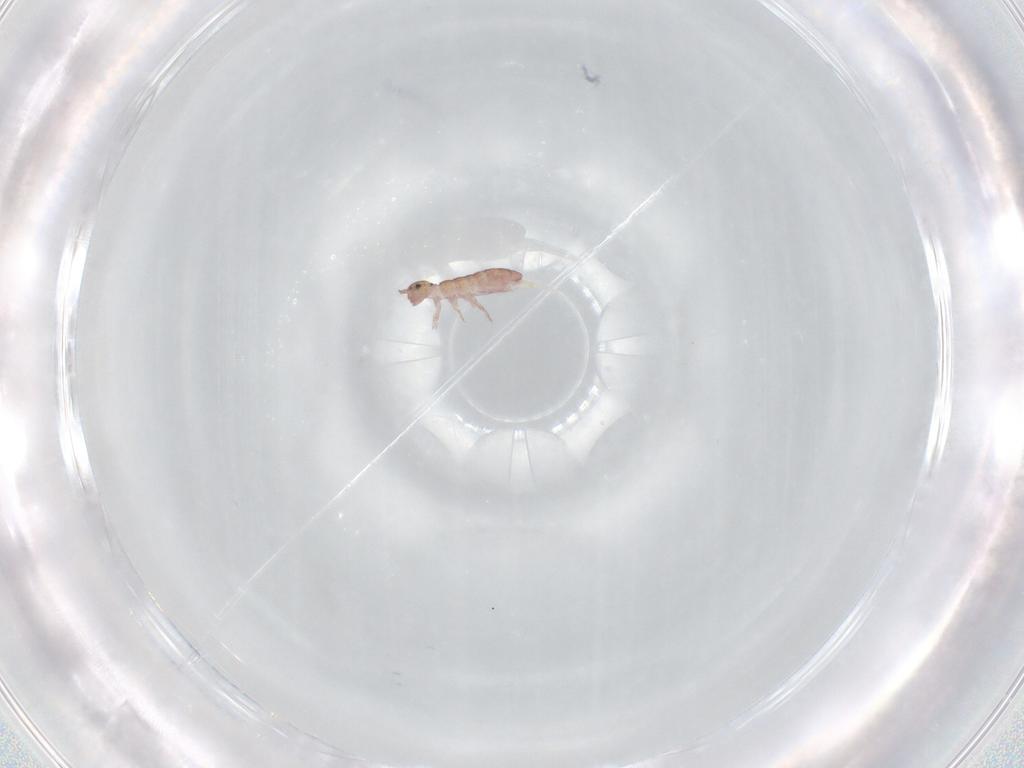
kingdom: Animalia
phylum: Arthropoda
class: Collembola
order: Entomobryomorpha
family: Isotomidae
